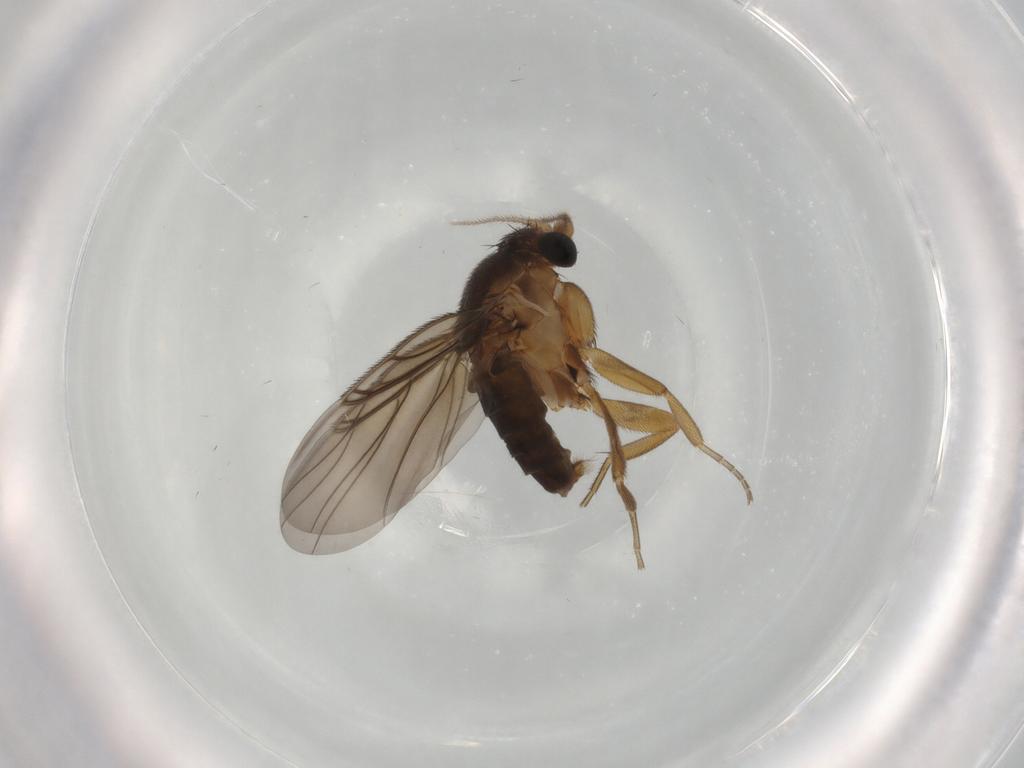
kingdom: Animalia
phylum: Arthropoda
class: Insecta
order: Diptera
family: Phoridae
